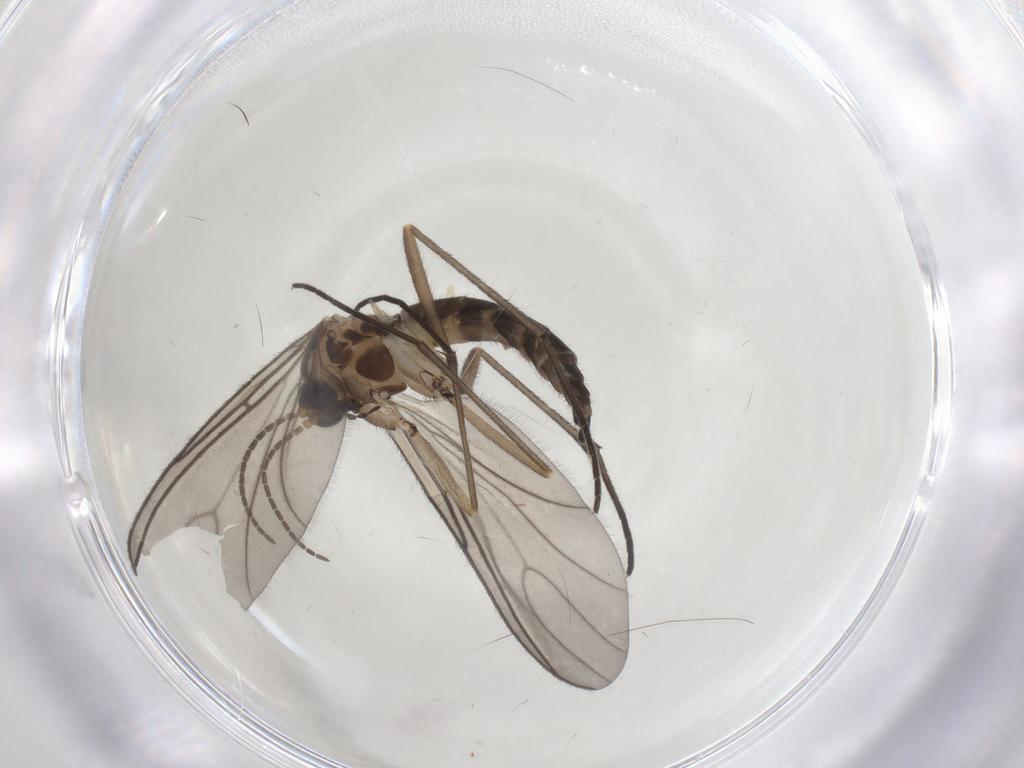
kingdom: Animalia
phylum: Arthropoda
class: Insecta
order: Diptera
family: Sciaridae
